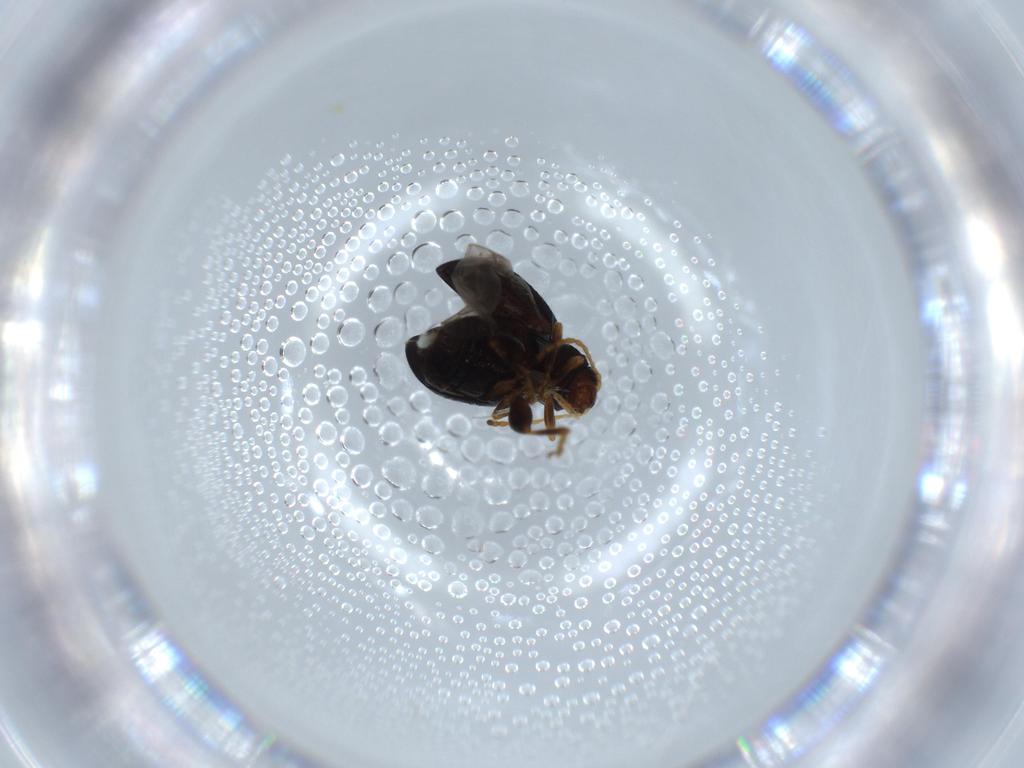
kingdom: Animalia
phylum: Arthropoda
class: Insecta
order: Coleoptera
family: Chrysomelidae
